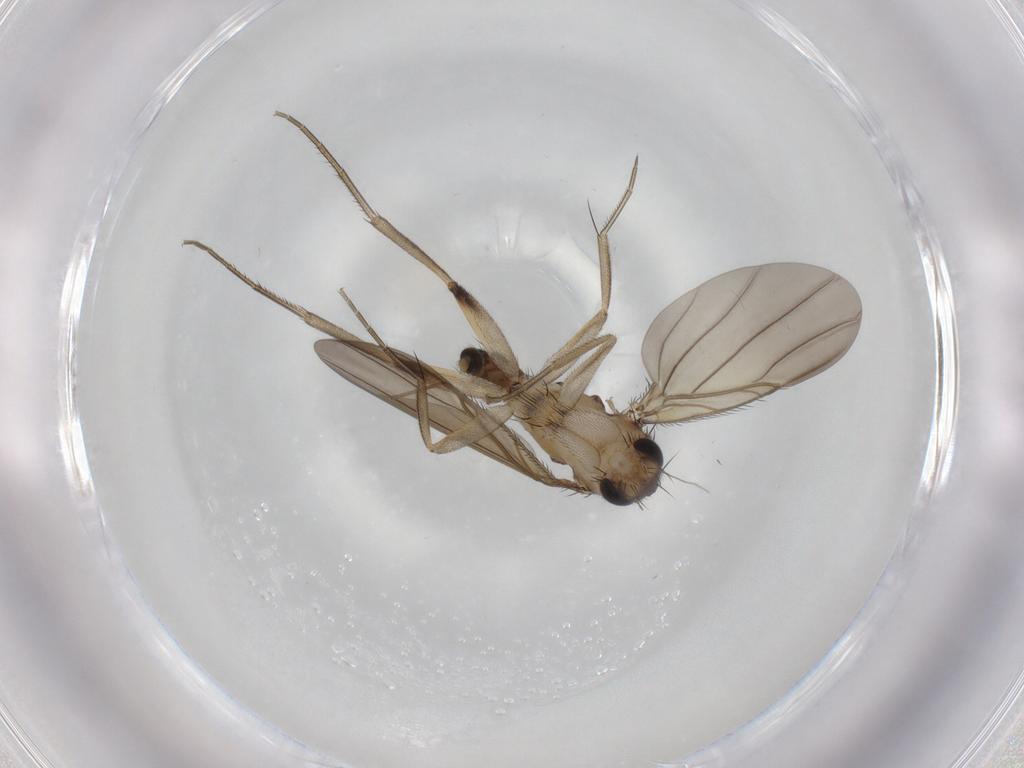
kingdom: Animalia
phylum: Arthropoda
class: Insecta
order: Diptera
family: Phoridae
